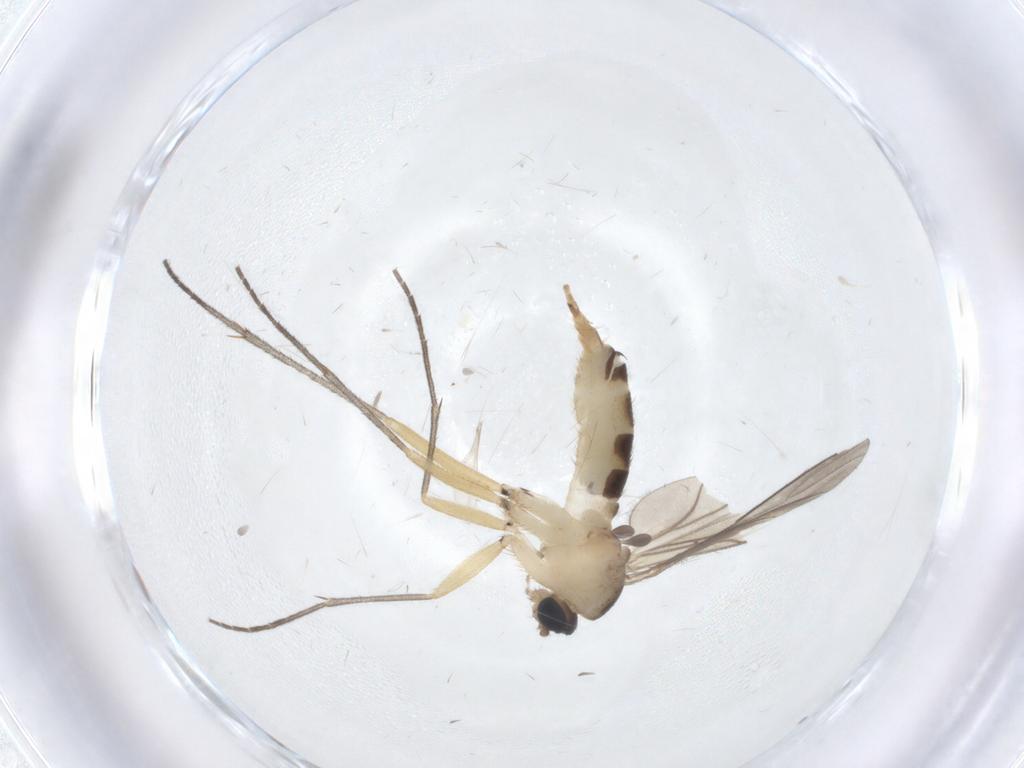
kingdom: Animalia
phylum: Arthropoda
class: Insecta
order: Diptera
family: Sciaridae
